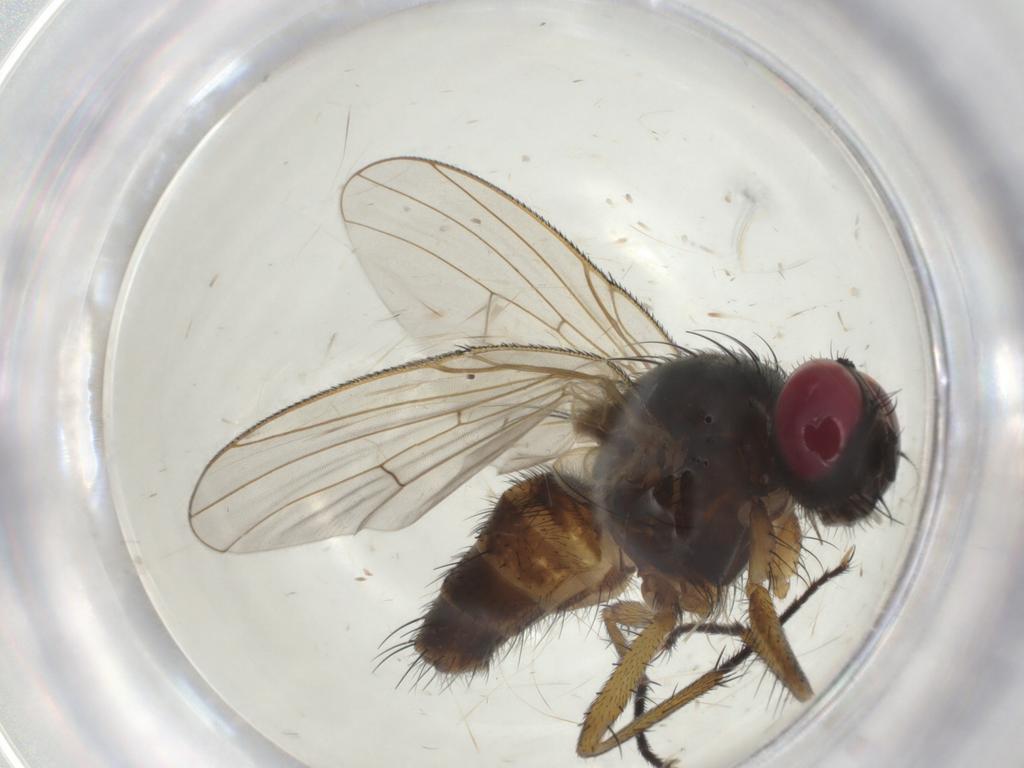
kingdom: Animalia
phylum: Arthropoda
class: Insecta
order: Diptera
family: Muscidae
